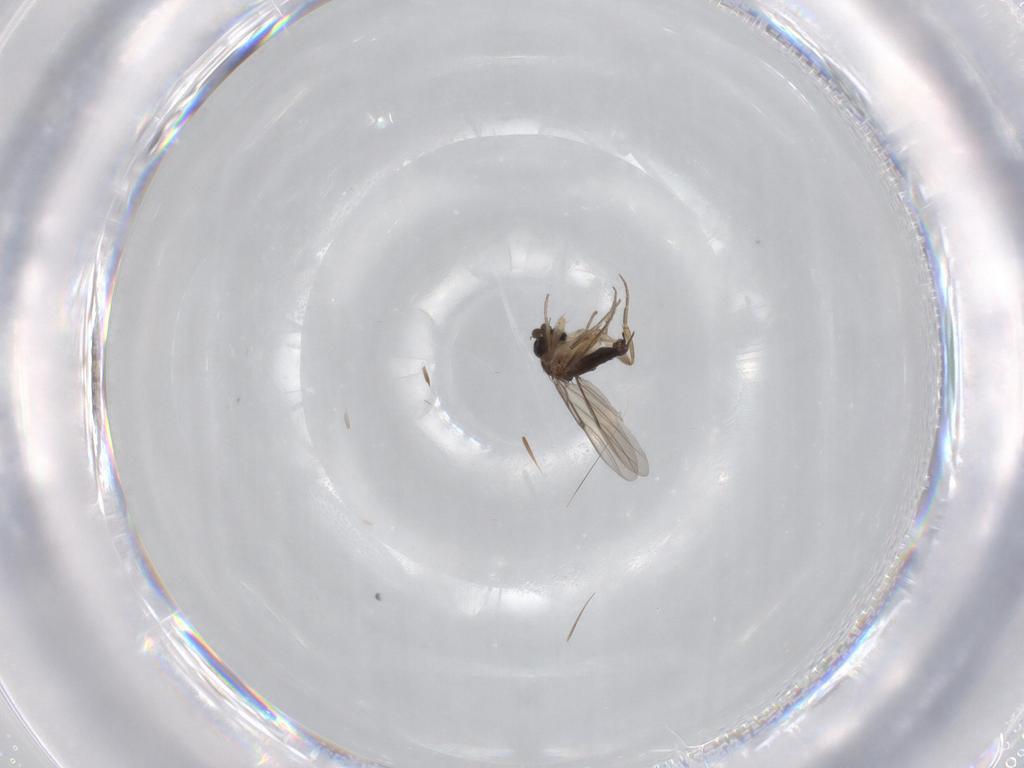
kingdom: Animalia
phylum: Arthropoda
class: Insecta
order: Diptera
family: Phoridae
